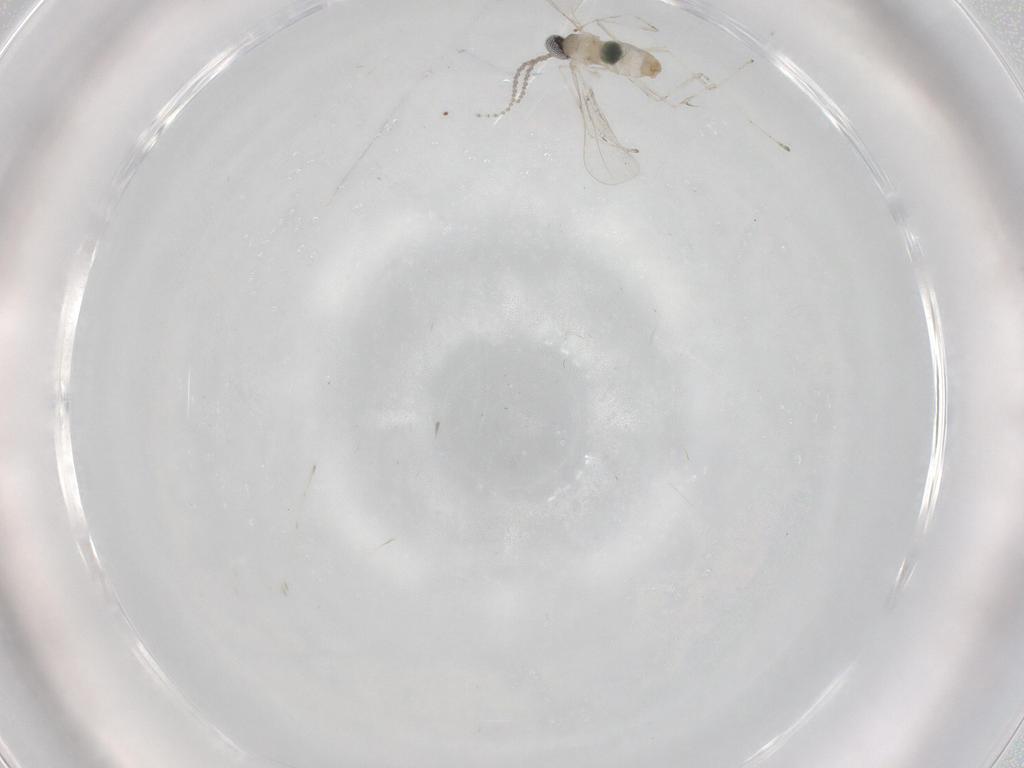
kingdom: Animalia
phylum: Arthropoda
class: Insecta
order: Diptera
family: Cecidomyiidae
